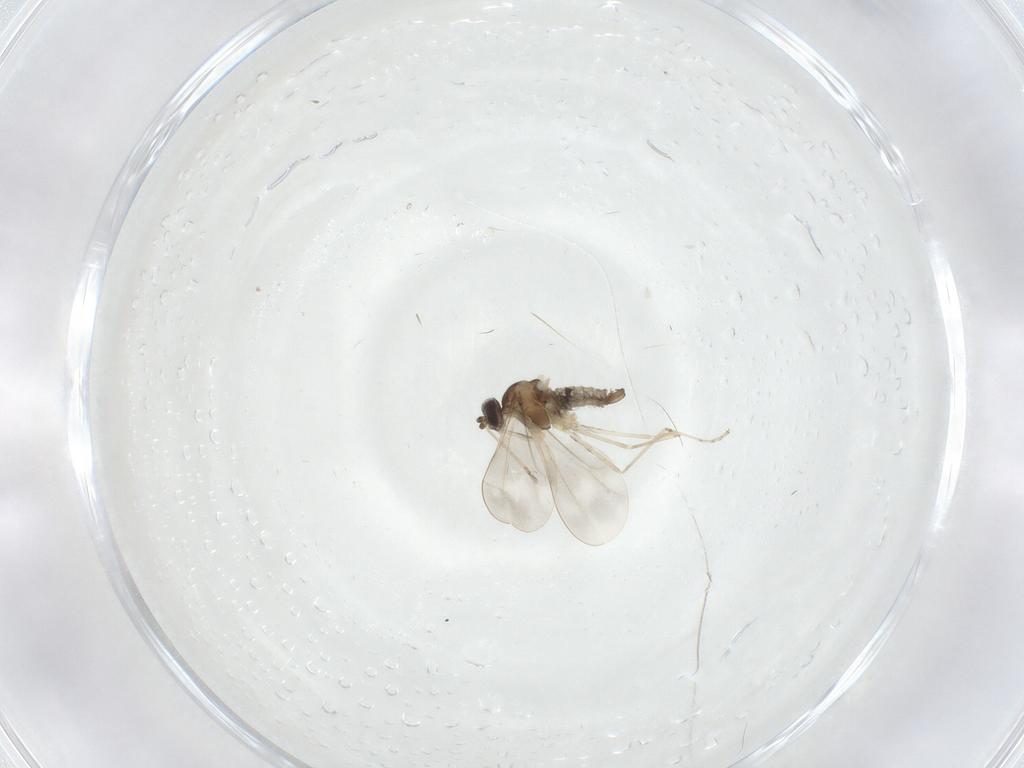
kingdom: Animalia
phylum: Arthropoda
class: Insecta
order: Diptera
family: Cecidomyiidae
